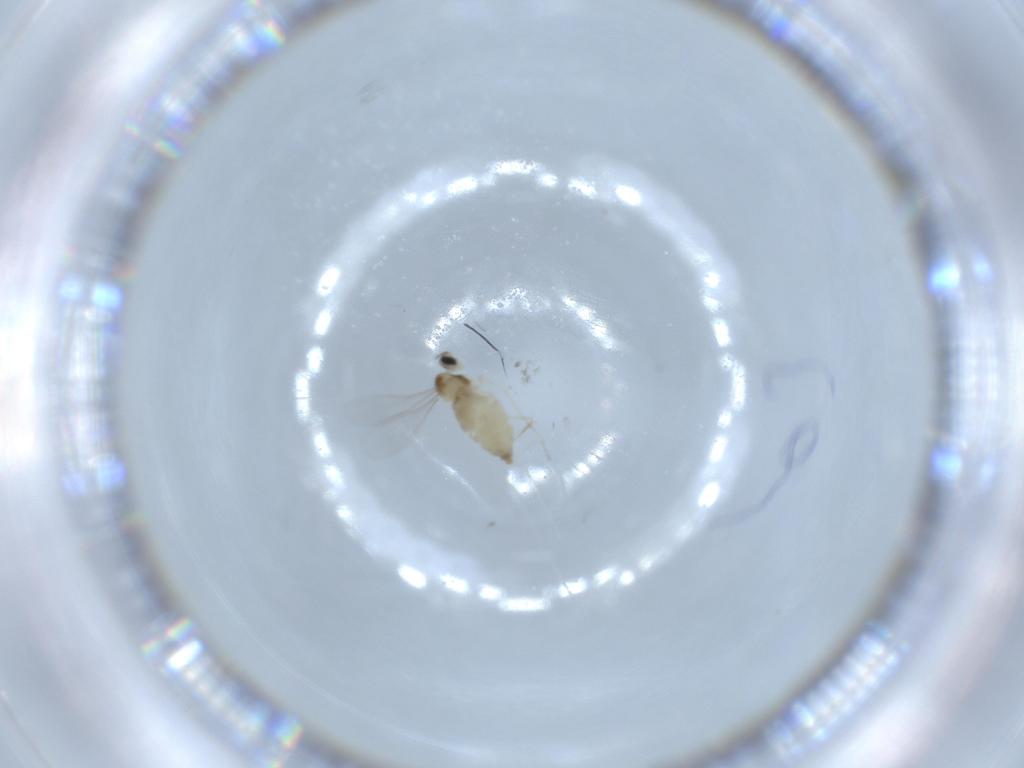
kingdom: Animalia
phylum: Arthropoda
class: Insecta
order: Diptera
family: Cecidomyiidae
